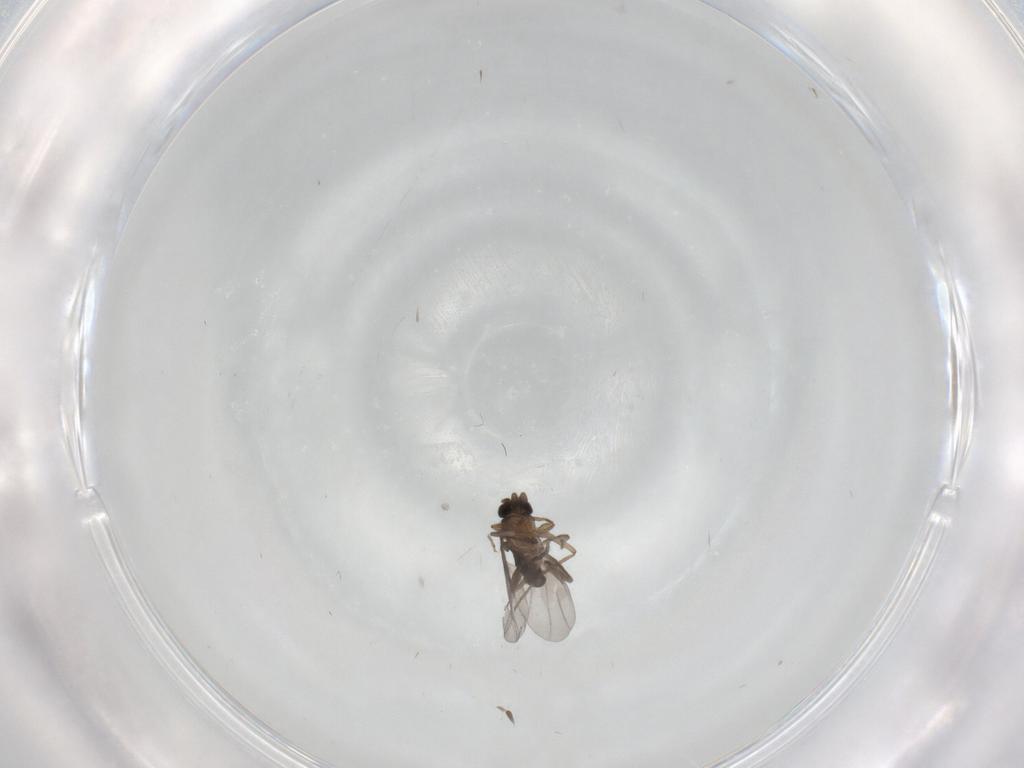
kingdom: Animalia
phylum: Arthropoda
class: Insecta
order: Diptera
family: Chironomidae
